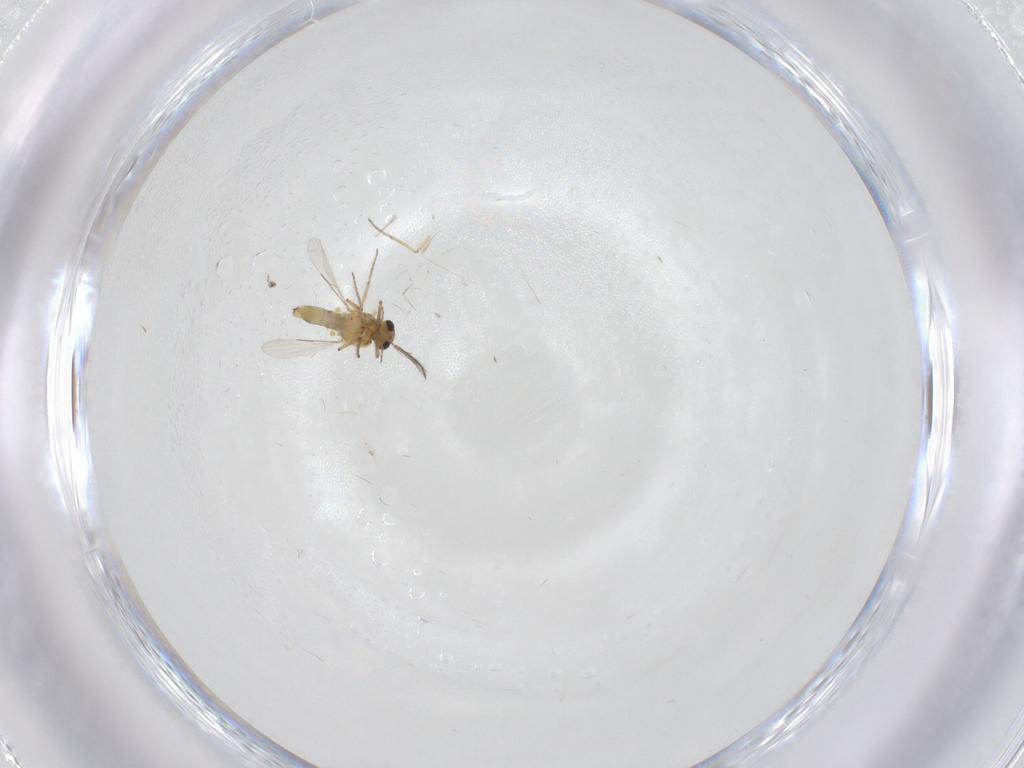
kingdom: Animalia
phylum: Arthropoda
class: Insecta
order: Diptera
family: Ceratopogonidae
